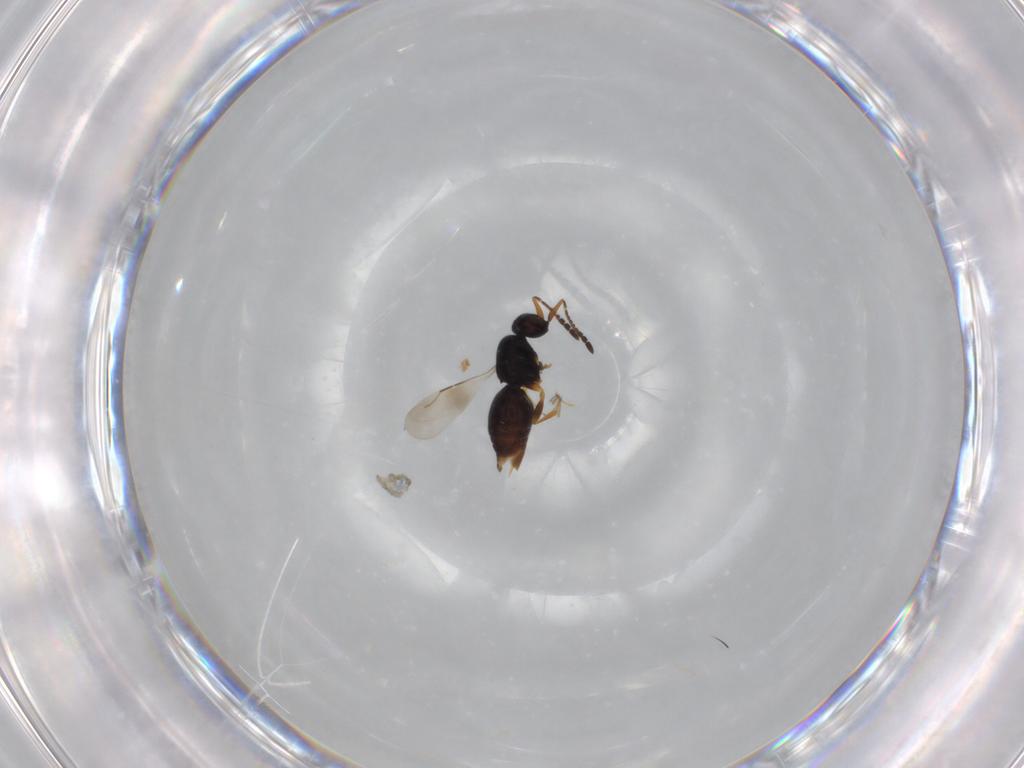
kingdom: Animalia
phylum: Arthropoda
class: Insecta
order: Hymenoptera
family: Ceraphronidae
